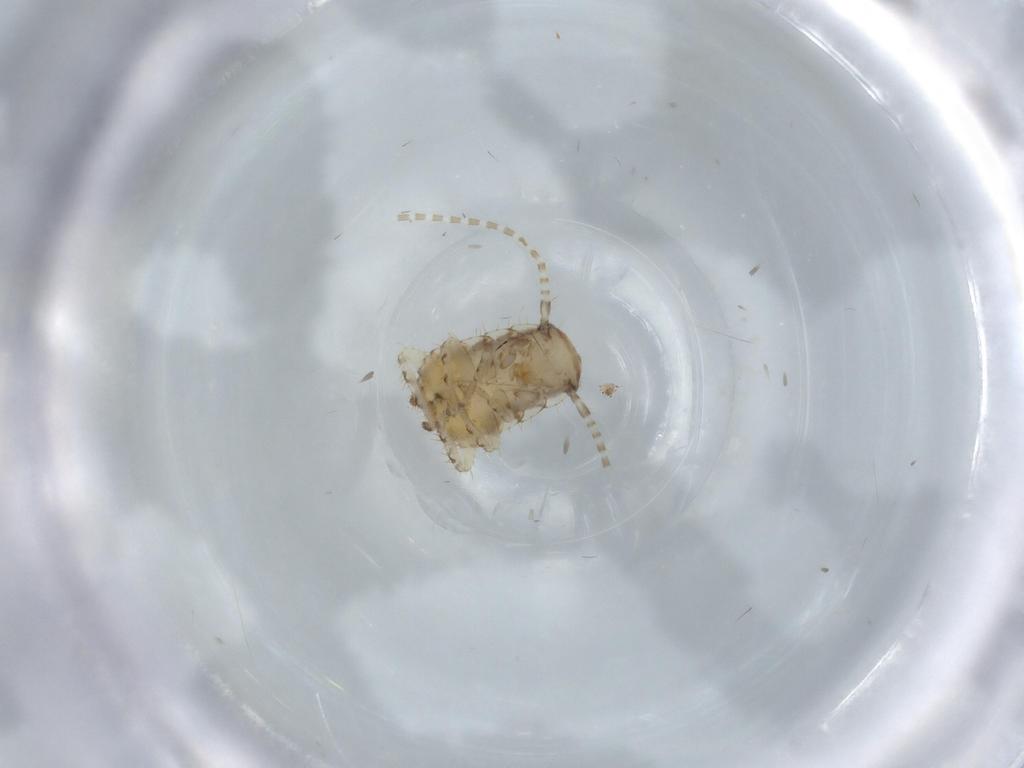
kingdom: Animalia
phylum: Arthropoda
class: Insecta
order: Blattodea
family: Ectobiidae
